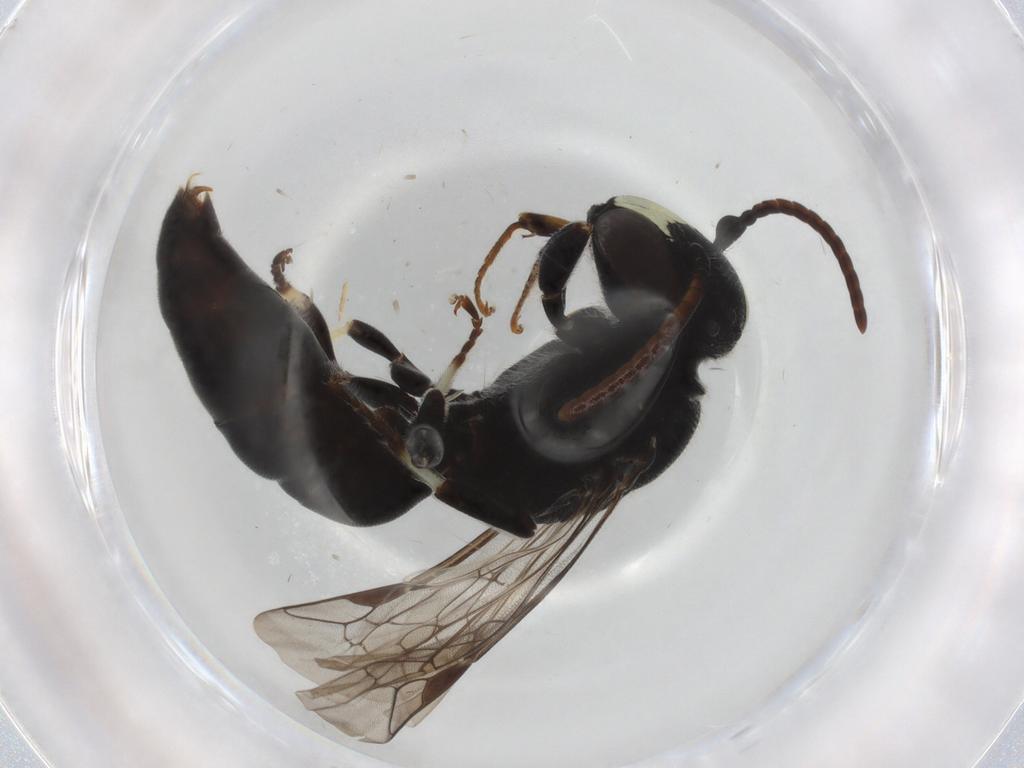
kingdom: Animalia
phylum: Arthropoda
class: Insecta
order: Hymenoptera
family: Colletidae
